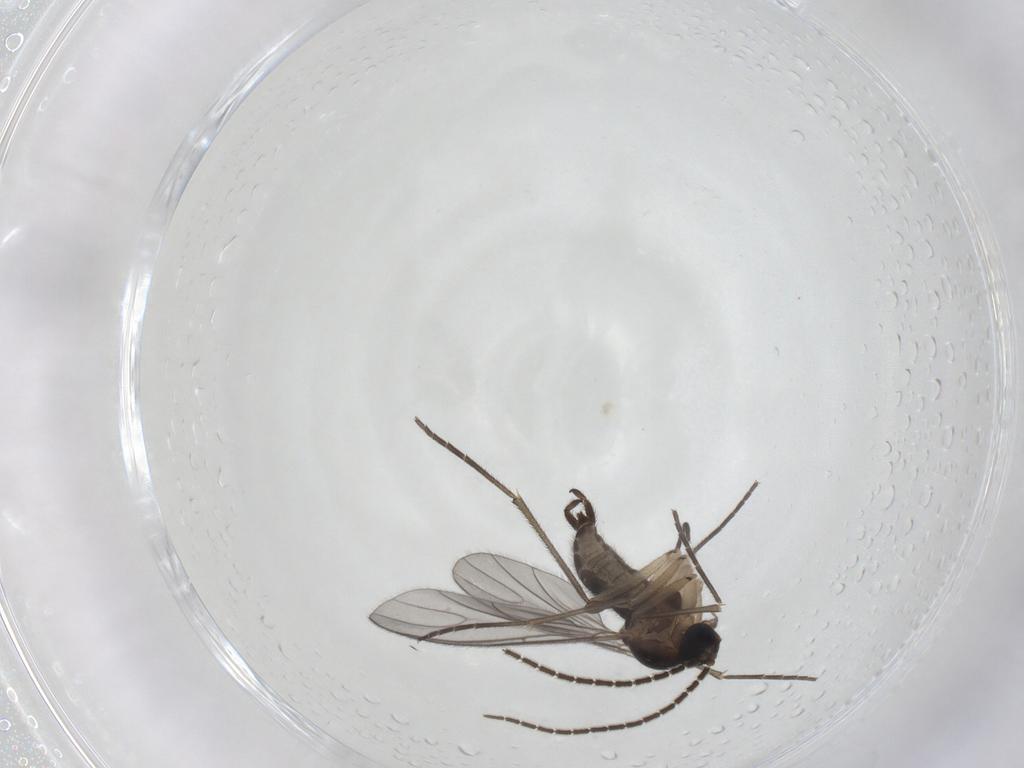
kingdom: Animalia
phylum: Arthropoda
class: Insecta
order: Diptera
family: Sciaridae
